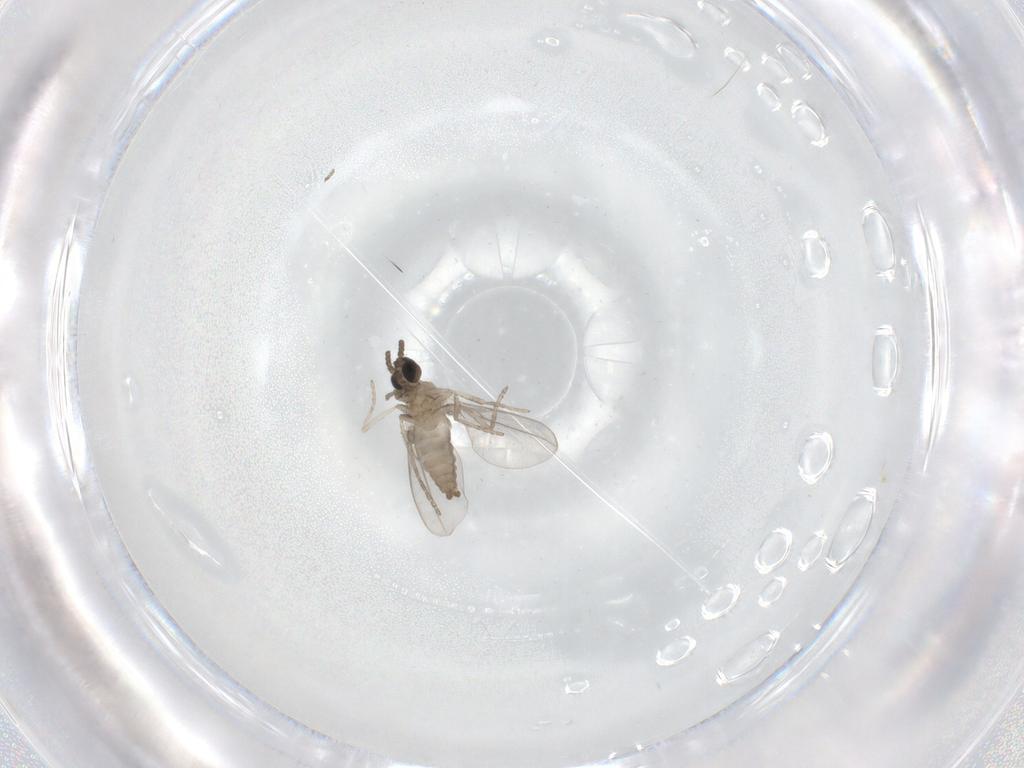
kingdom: Animalia
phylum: Arthropoda
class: Insecta
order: Diptera
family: Cecidomyiidae
